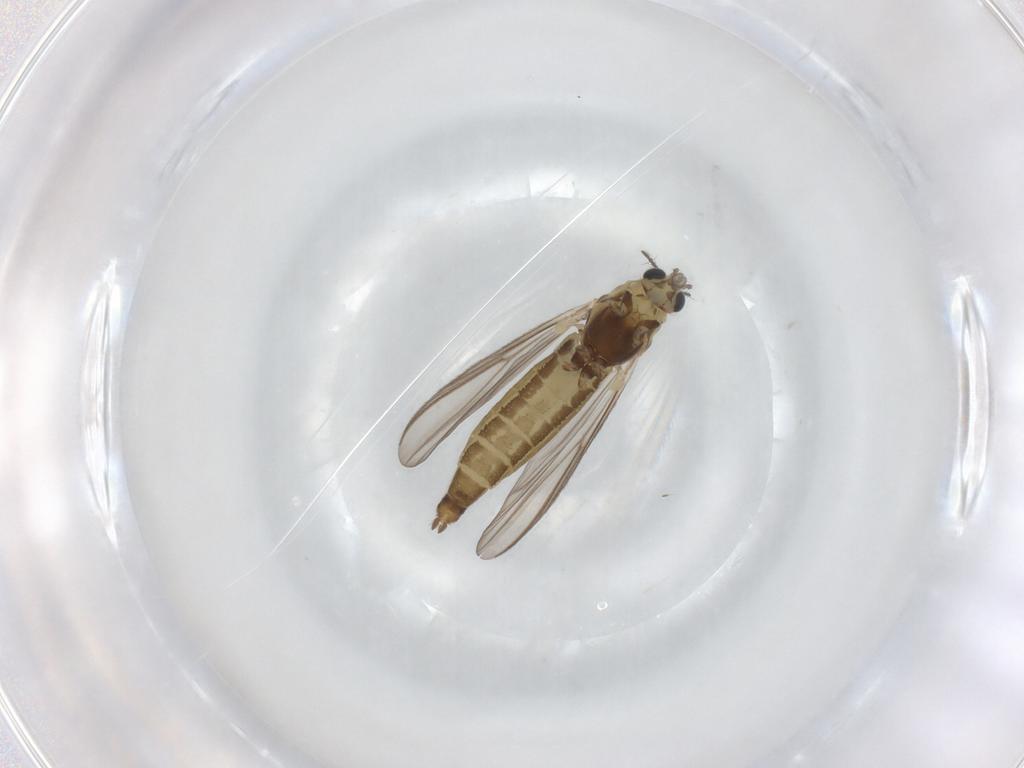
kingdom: Animalia
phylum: Arthropoda
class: Insecta
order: Diptera
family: Chironomidae
